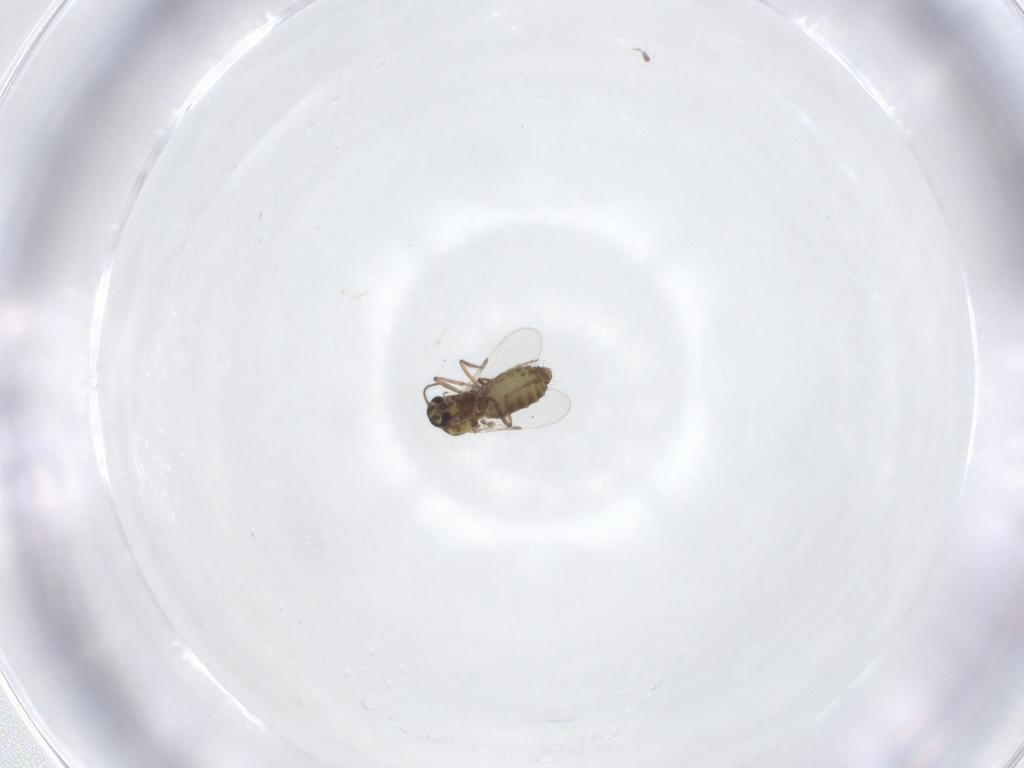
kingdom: Animalia
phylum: Arthropoda
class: Insecta
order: Diptera
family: Ceratopogonidae
